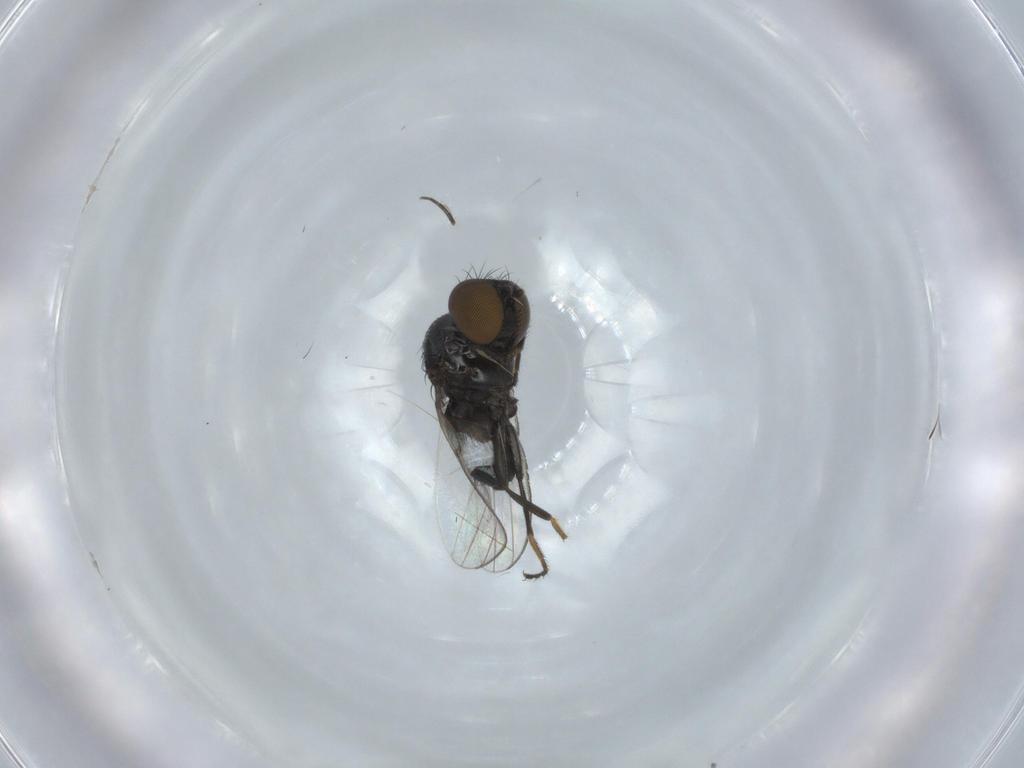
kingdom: Animalia
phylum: Arthropoda
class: Insecta
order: Diptera
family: Milichiidae
